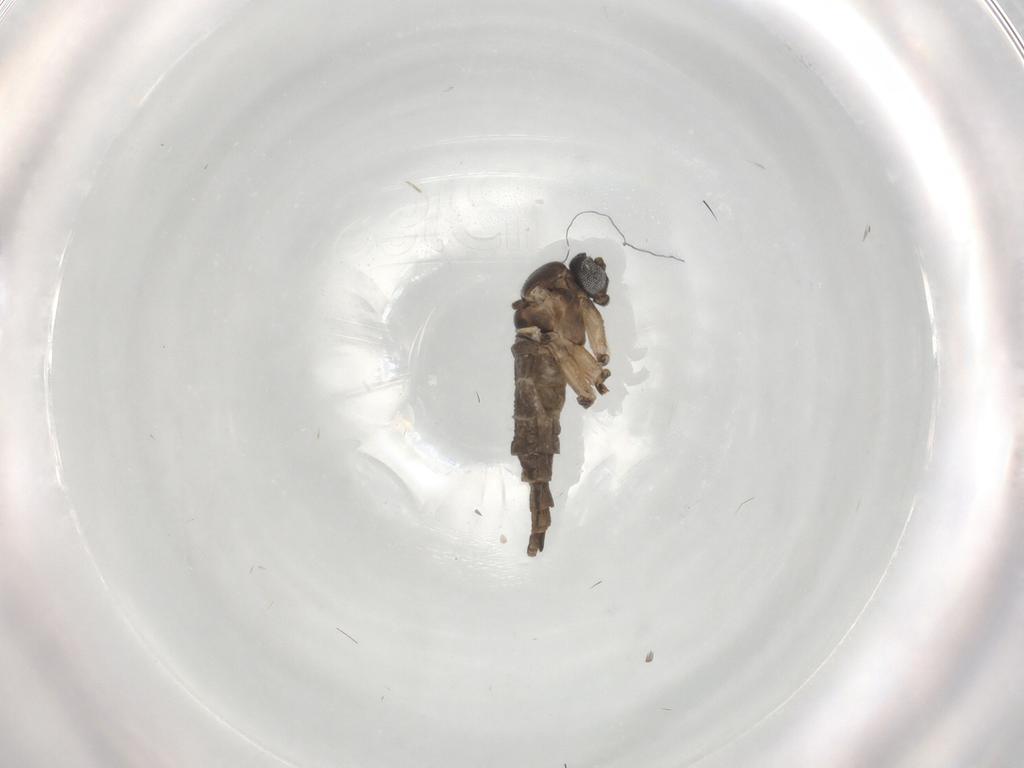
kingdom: Animalia
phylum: Arthropoda
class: Insecta
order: Diptera
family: Sciaridae
